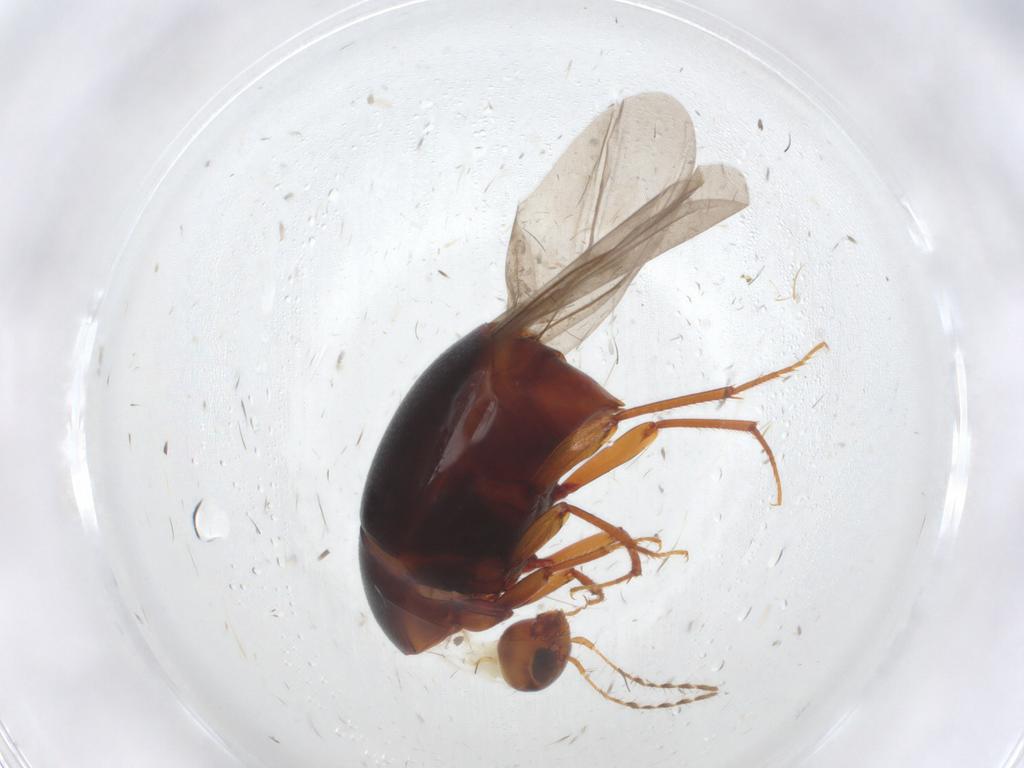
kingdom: Animalia
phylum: Arthropoda
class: Insecta
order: Coleoptera
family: Staphylinidae
